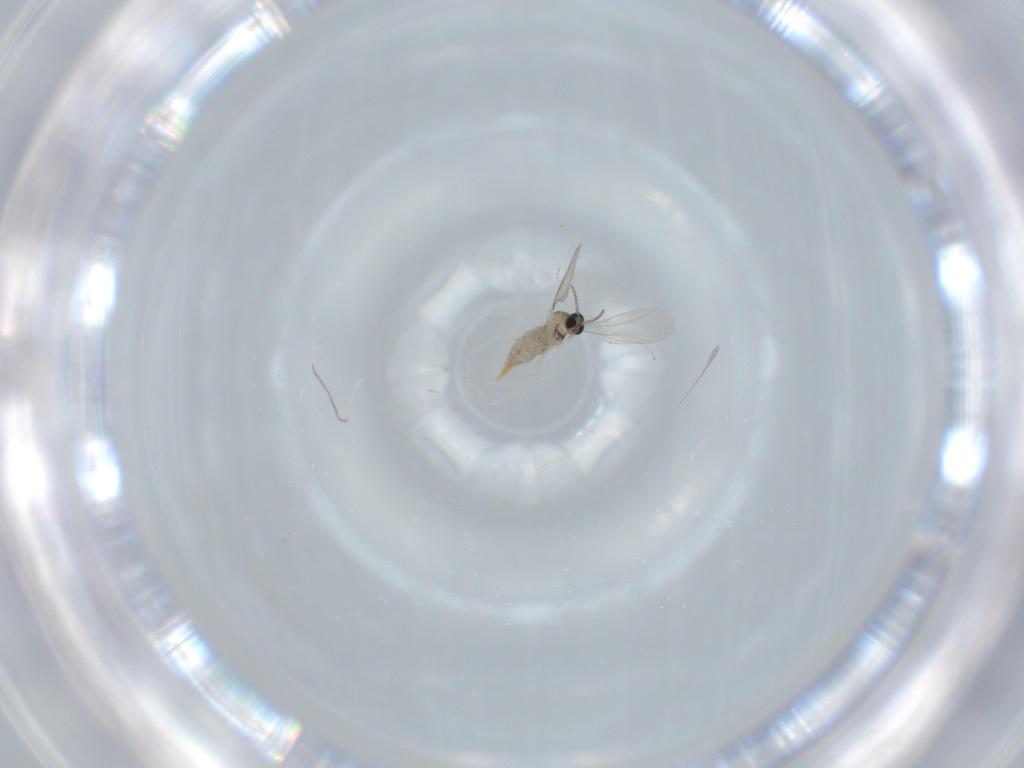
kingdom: Animalia
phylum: Arthropoda
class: Insecta
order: Diptera
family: Cecidomyiidae
